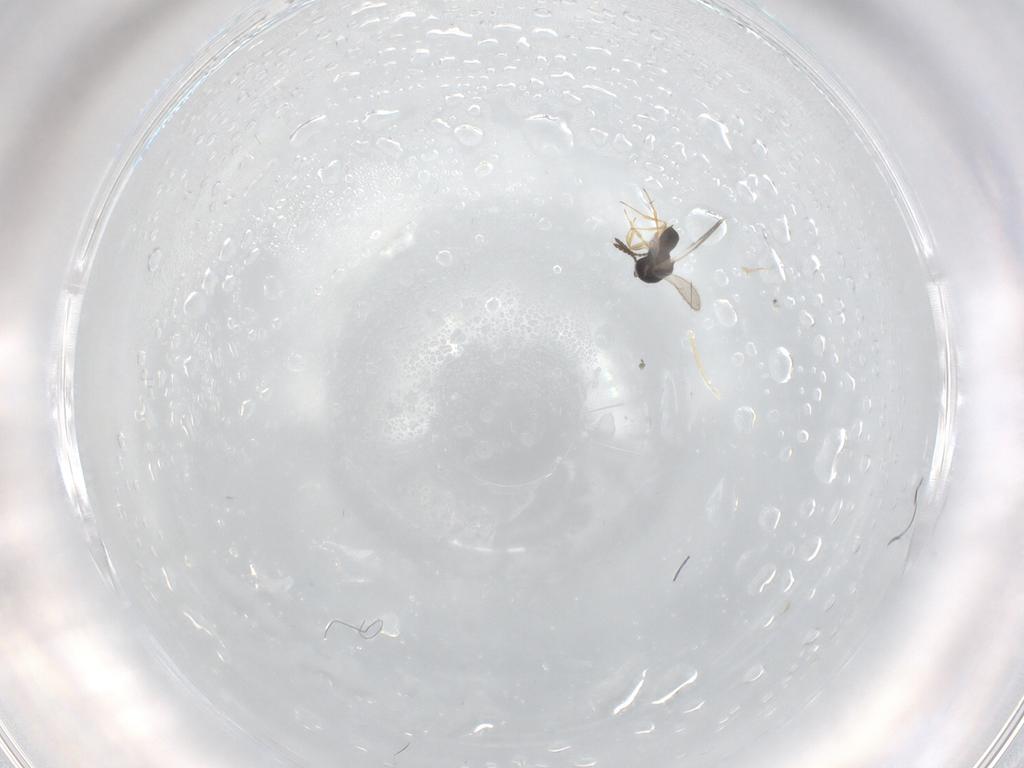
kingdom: Animalia
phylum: Arthropoda
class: Insecta
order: Hymenoptera
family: Scelionidae
